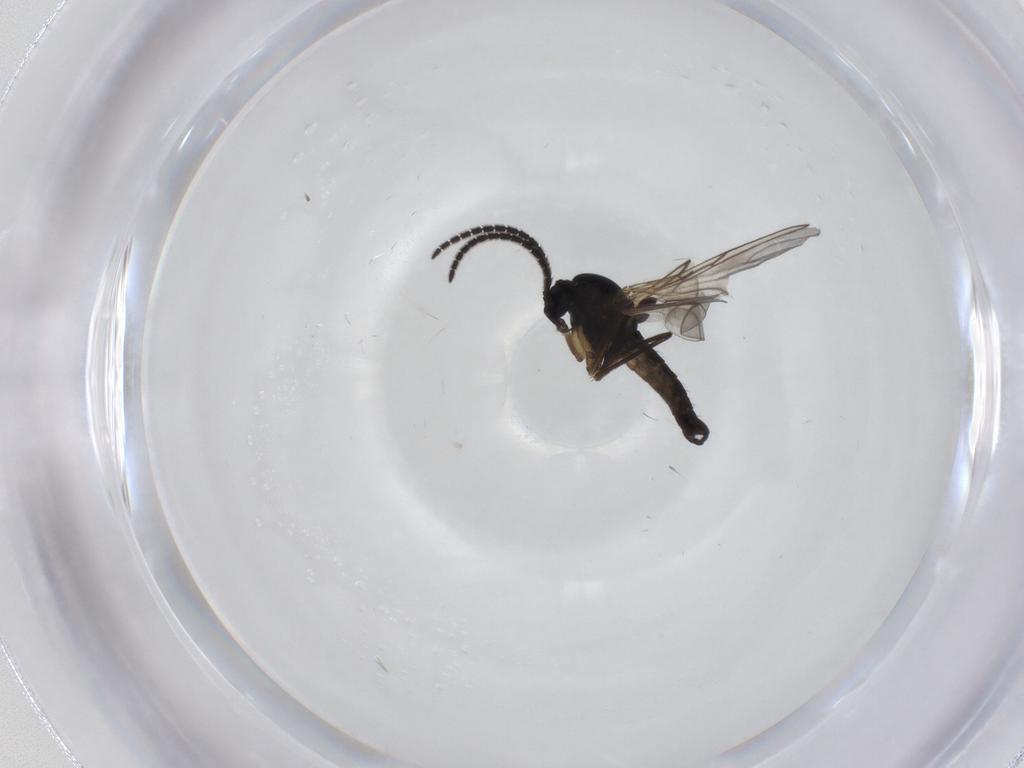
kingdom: Animalia
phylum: Arthropoda
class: Insecta
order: Diptera
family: Sciaridae
